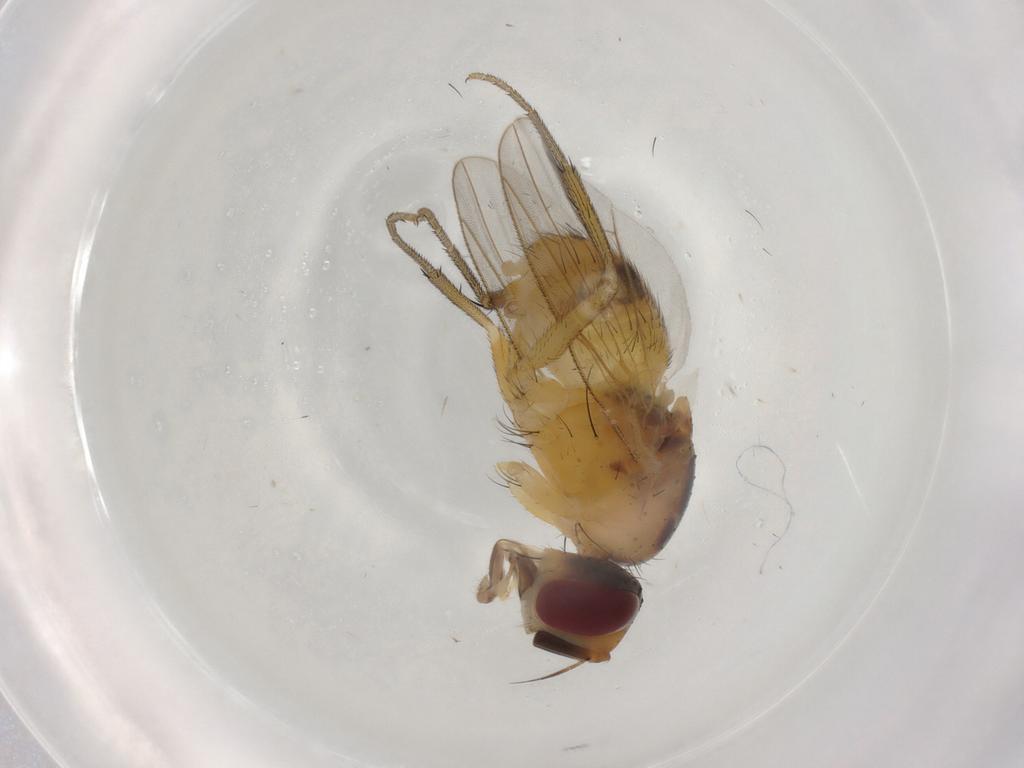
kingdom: Animalia
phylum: Arthropoda
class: Insecta
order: Diptera
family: Muscidae
